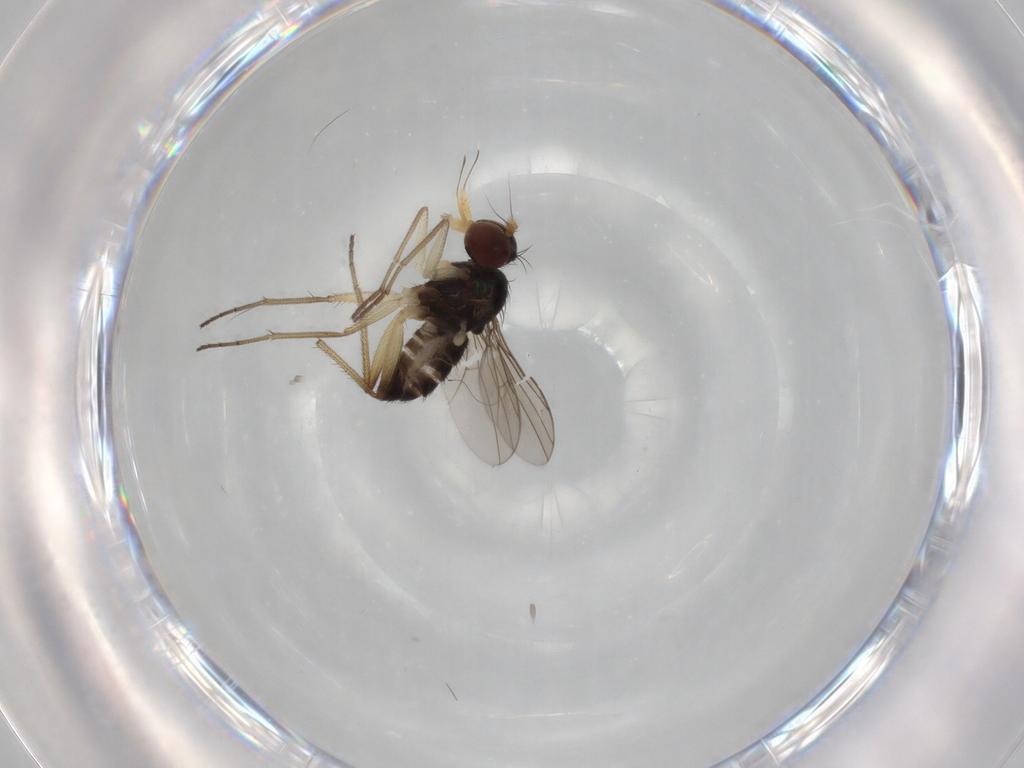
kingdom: Animalia
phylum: Arthropoda
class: Insecta
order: Diptera
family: Dolichopodidae
